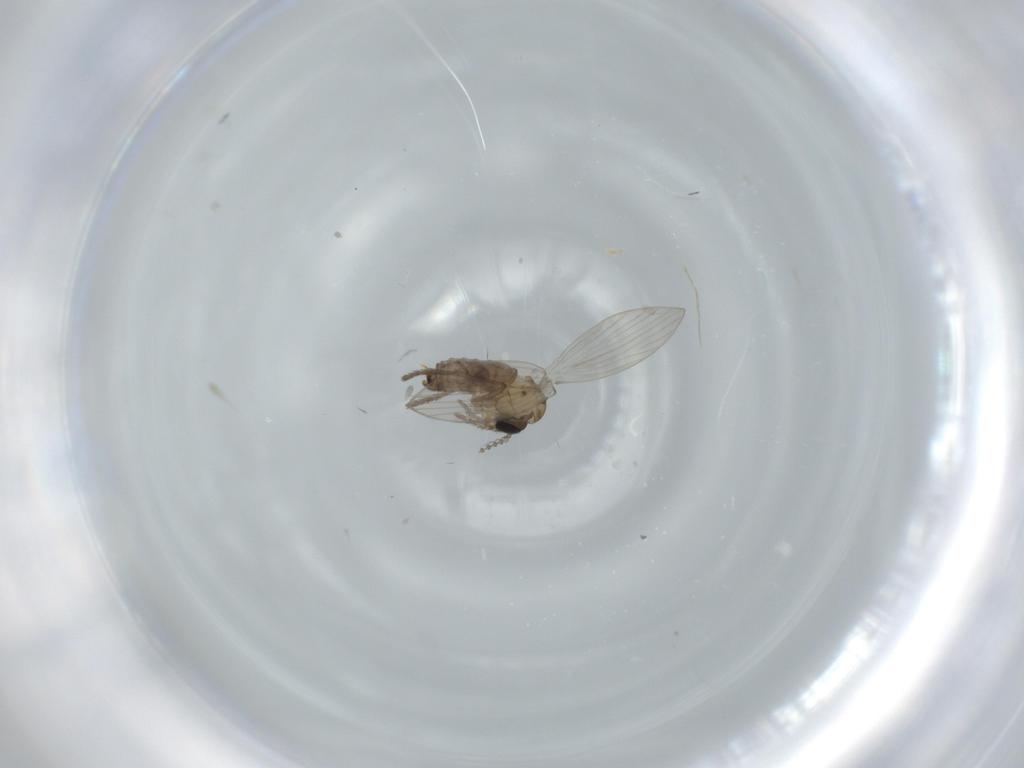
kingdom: Animalia
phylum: Arthropoda
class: Insecta
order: Diptera
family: Psychodidae
